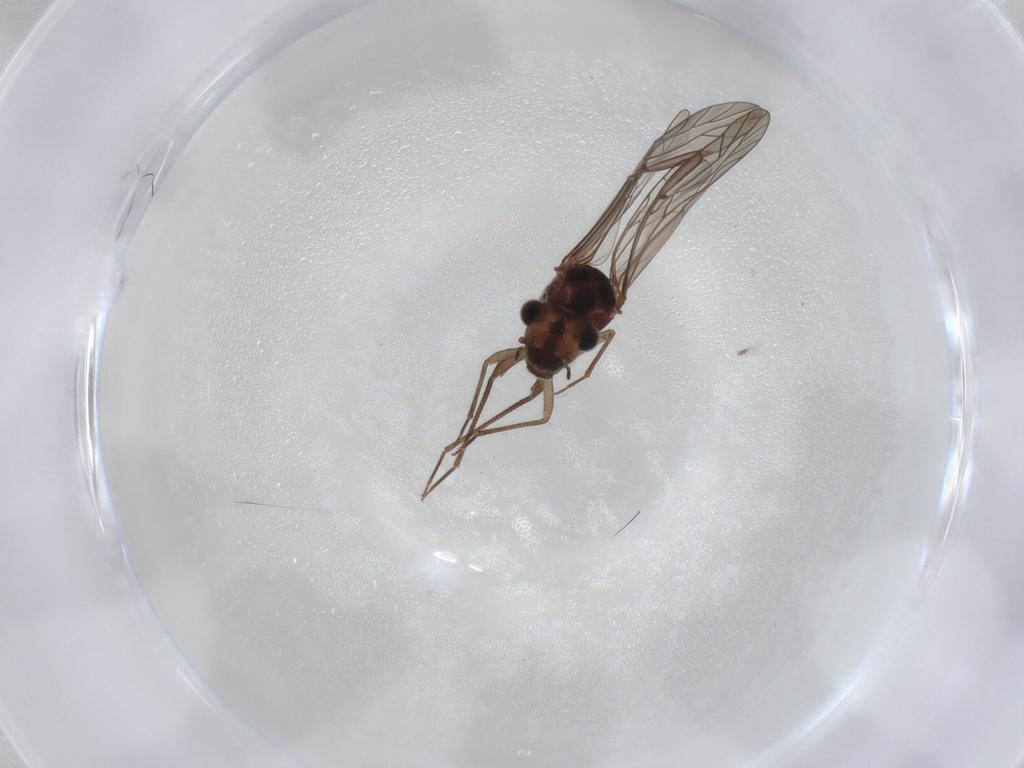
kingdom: Animalia
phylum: Arthropoda
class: Insecta
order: Psocodea
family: Lachesillidae
